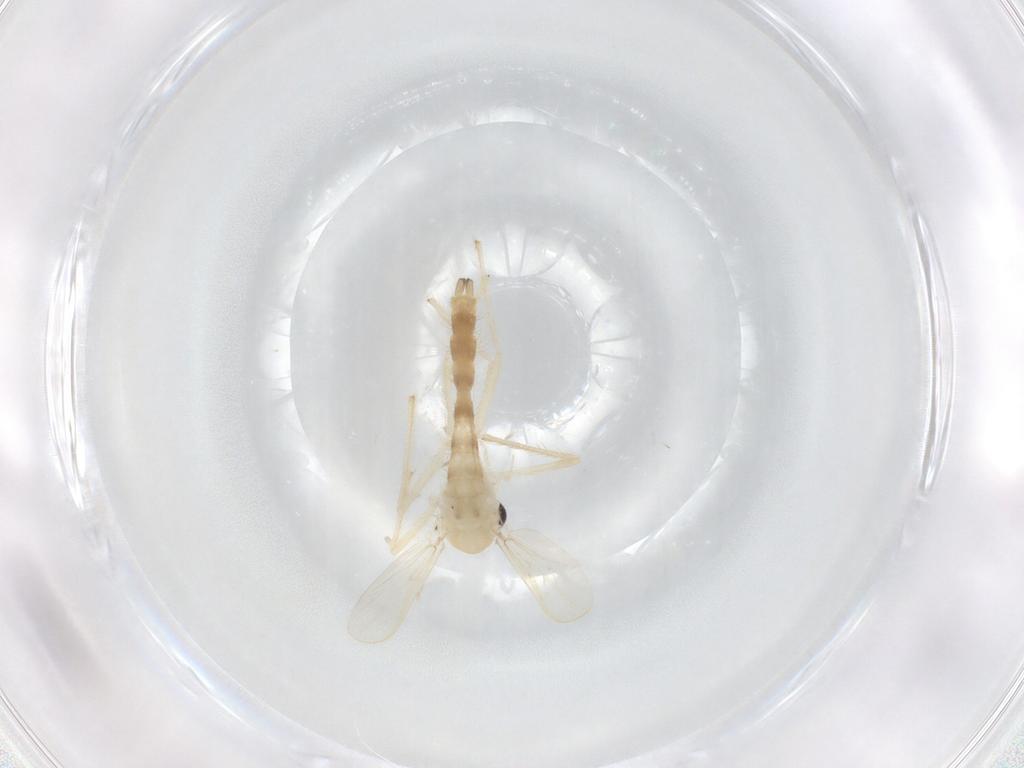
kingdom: Animalia
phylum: Arthropoda
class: Insecta
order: Diptera
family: Chironomidae
